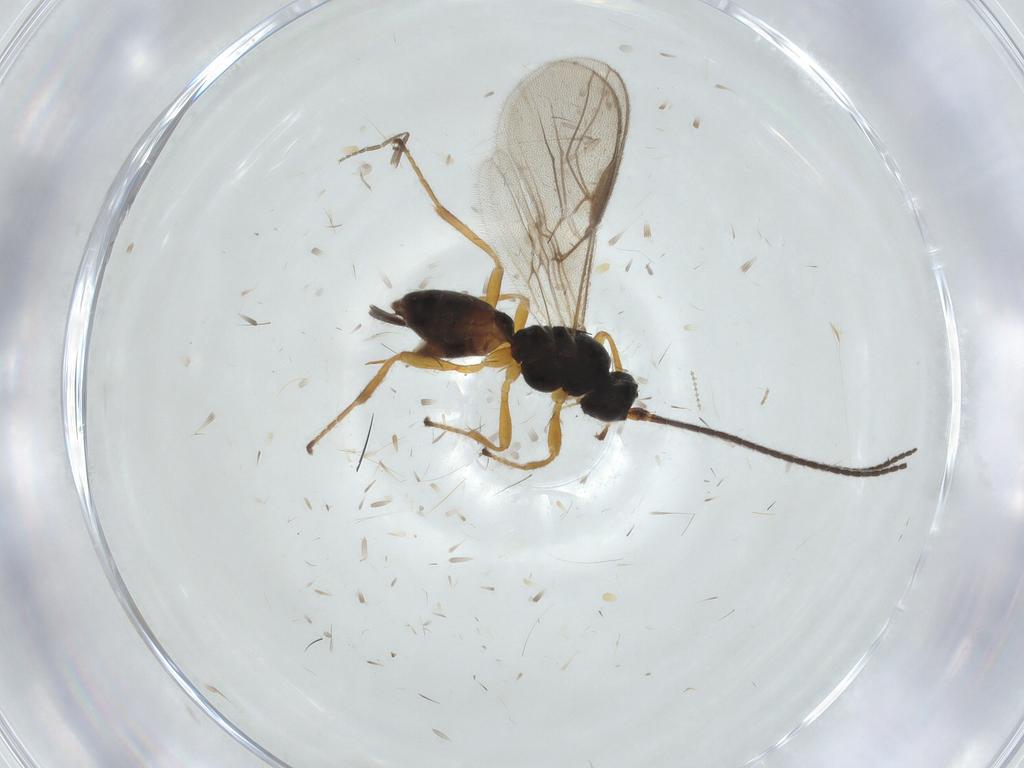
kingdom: Animalia
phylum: Arthropoda
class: Insecta
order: Hymenoptera
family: Braconidae
